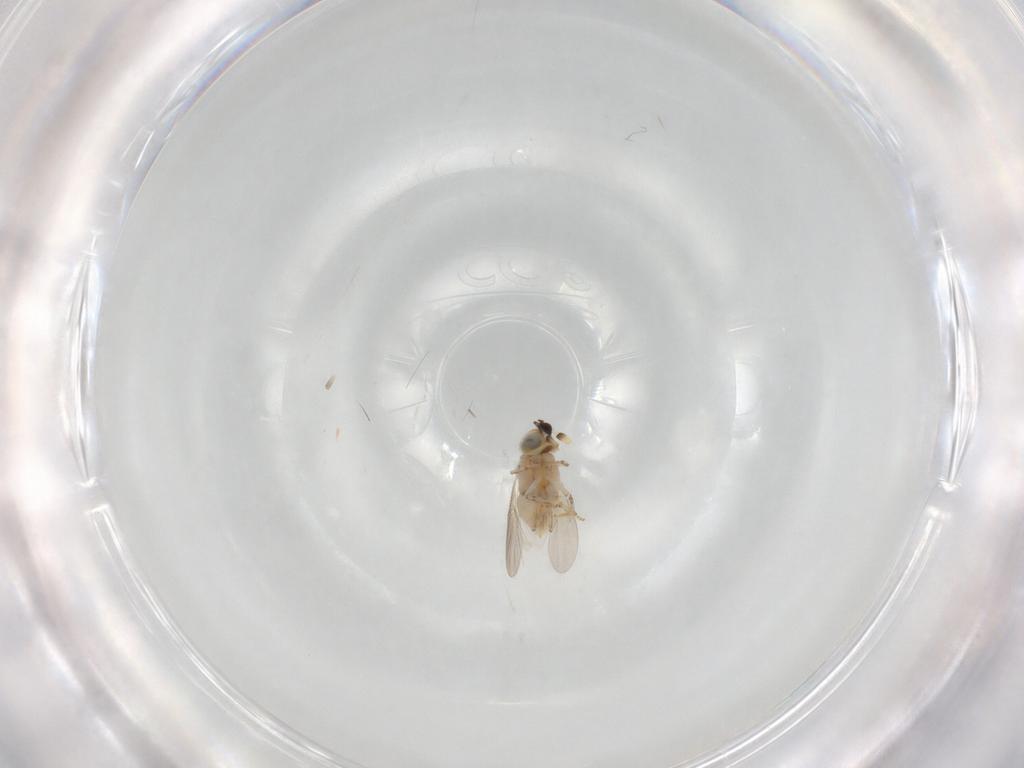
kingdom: Animalia
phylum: Arthropoda
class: Insecta
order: Hymenoptera
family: Encyrtidae
